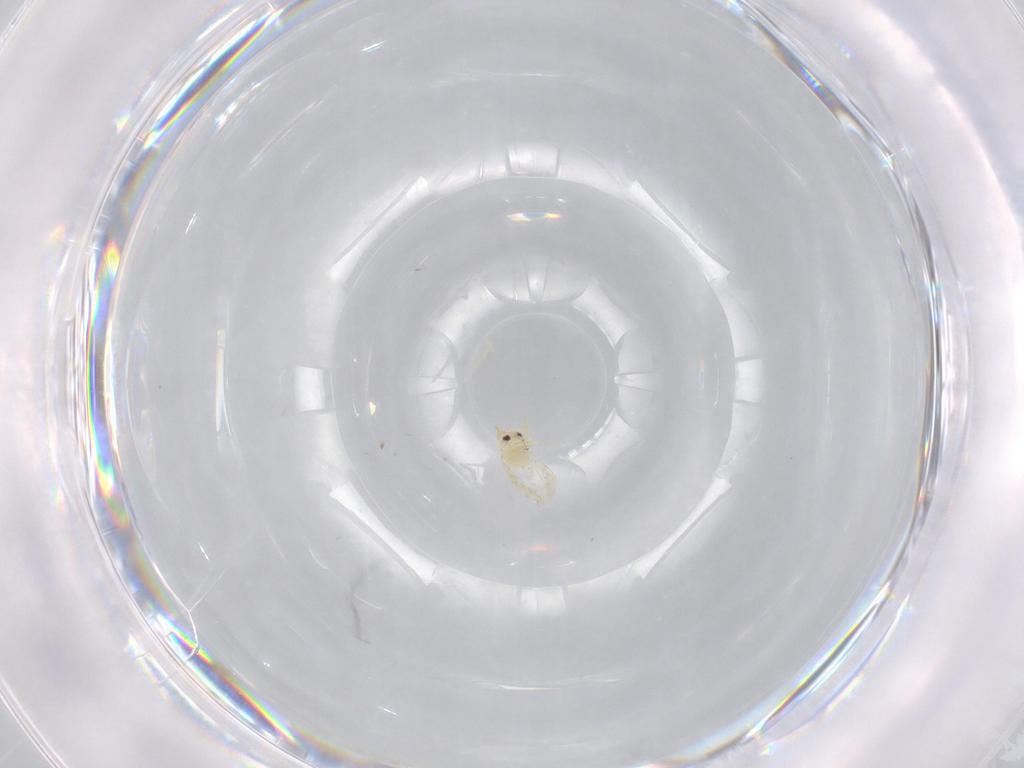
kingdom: Animalia
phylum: Arthropoda
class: Insecta
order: Hemiptera
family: Aleyrodidae
